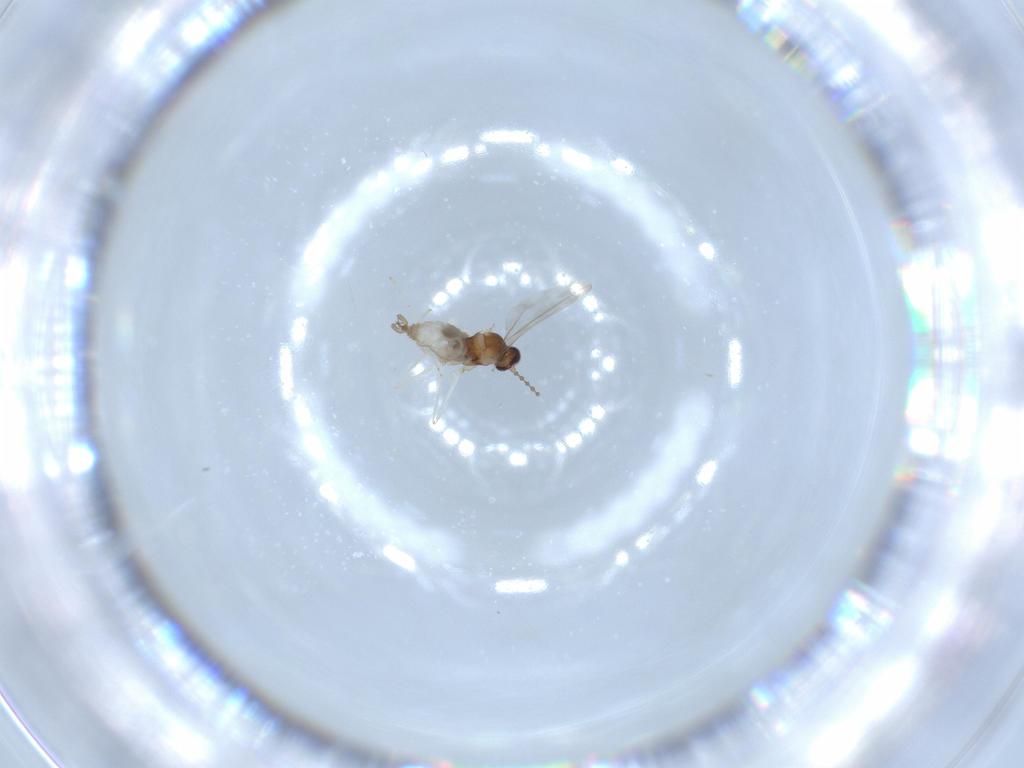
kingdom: Animalia
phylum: Arthropoda
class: Insecta
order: Diptera
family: Cecidomyiidae
